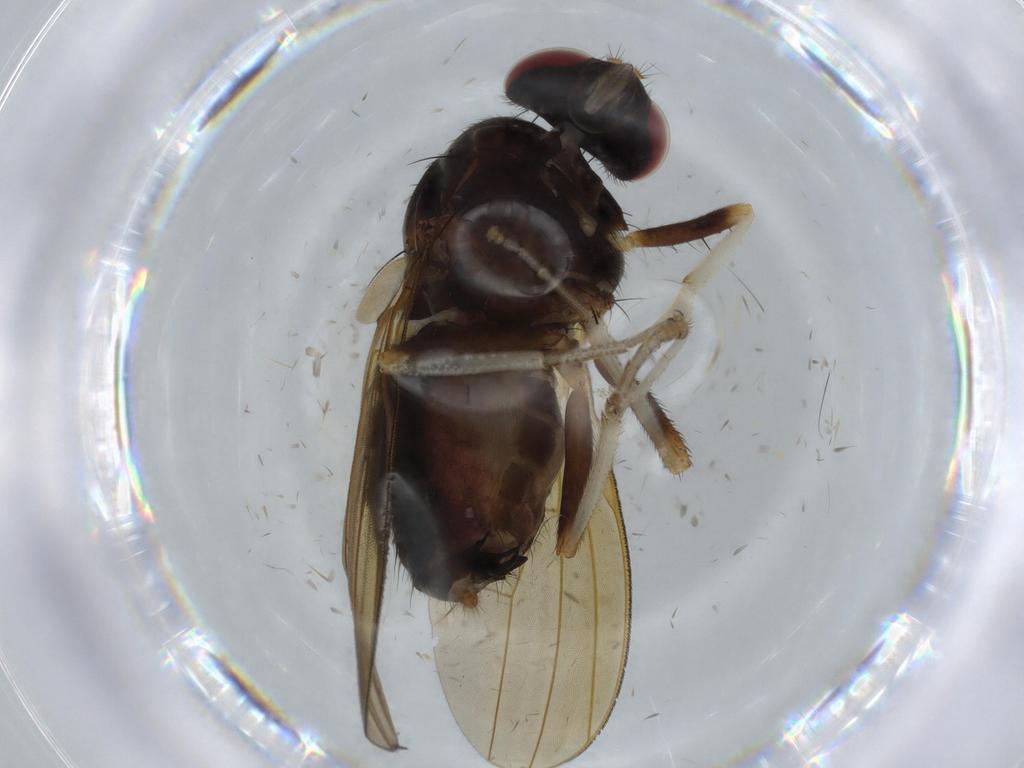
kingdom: Animalia
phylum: Arthropoda
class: Insecta
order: Diptera
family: Lauxaniidae
